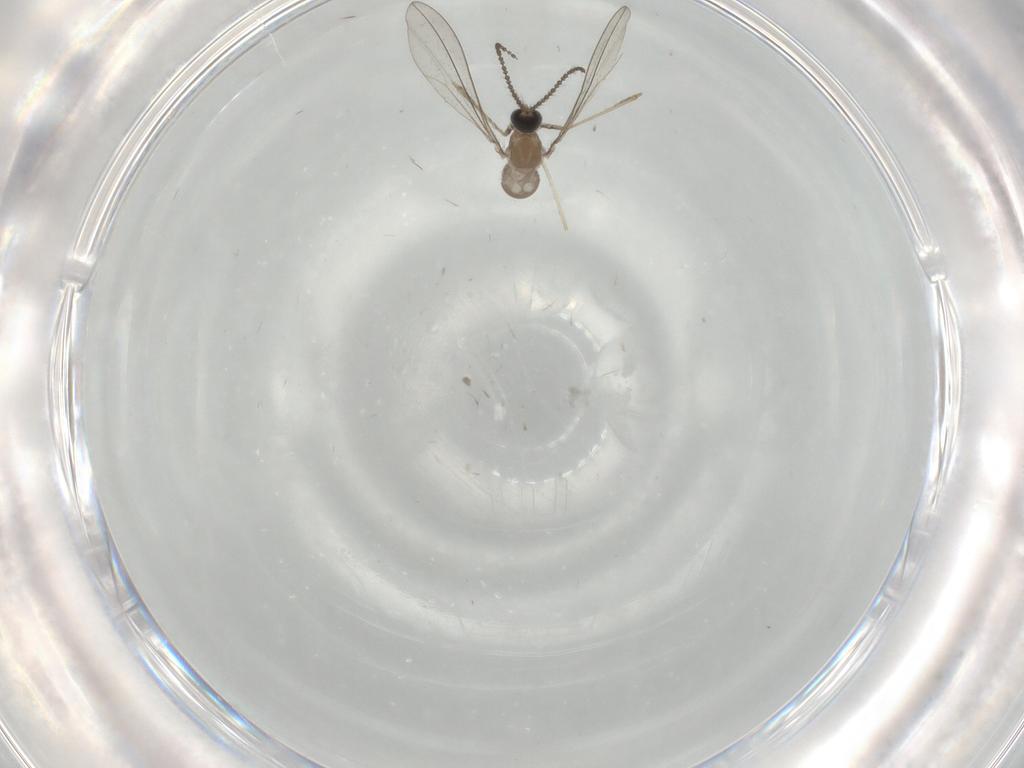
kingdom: Animalia
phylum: Arthropoda
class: Insecta
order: Diptera
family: Cecidomyiidae
